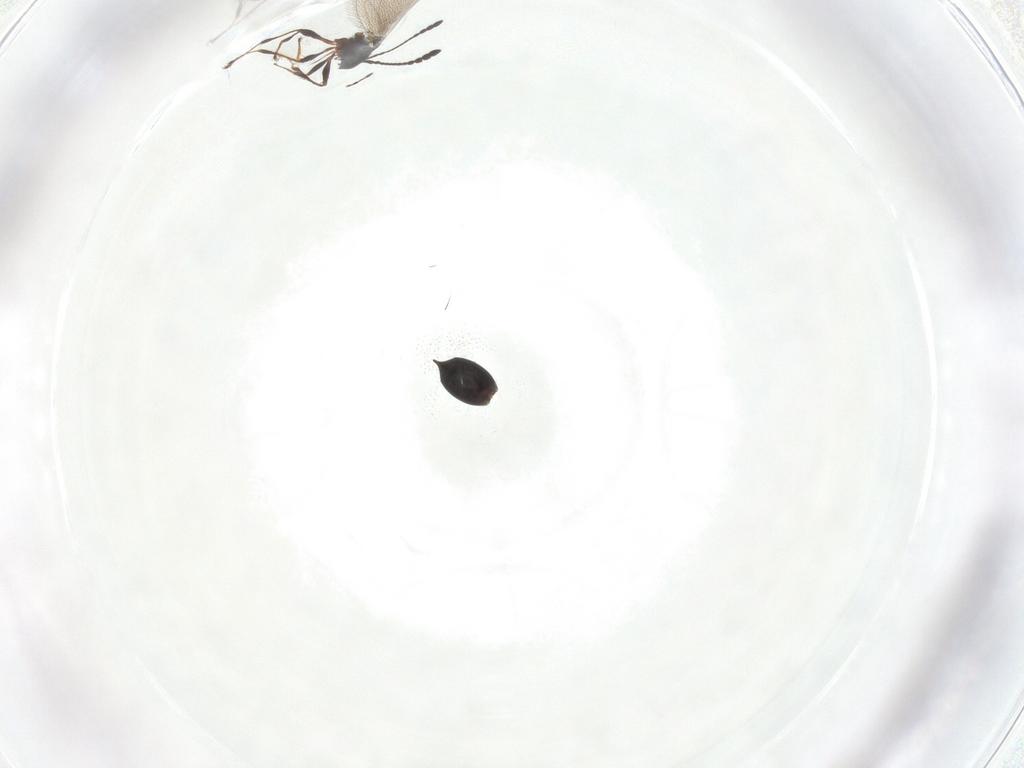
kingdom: Animalia
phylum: Arthropoda
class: Insecta
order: Hymenoptera
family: Diapriidae
